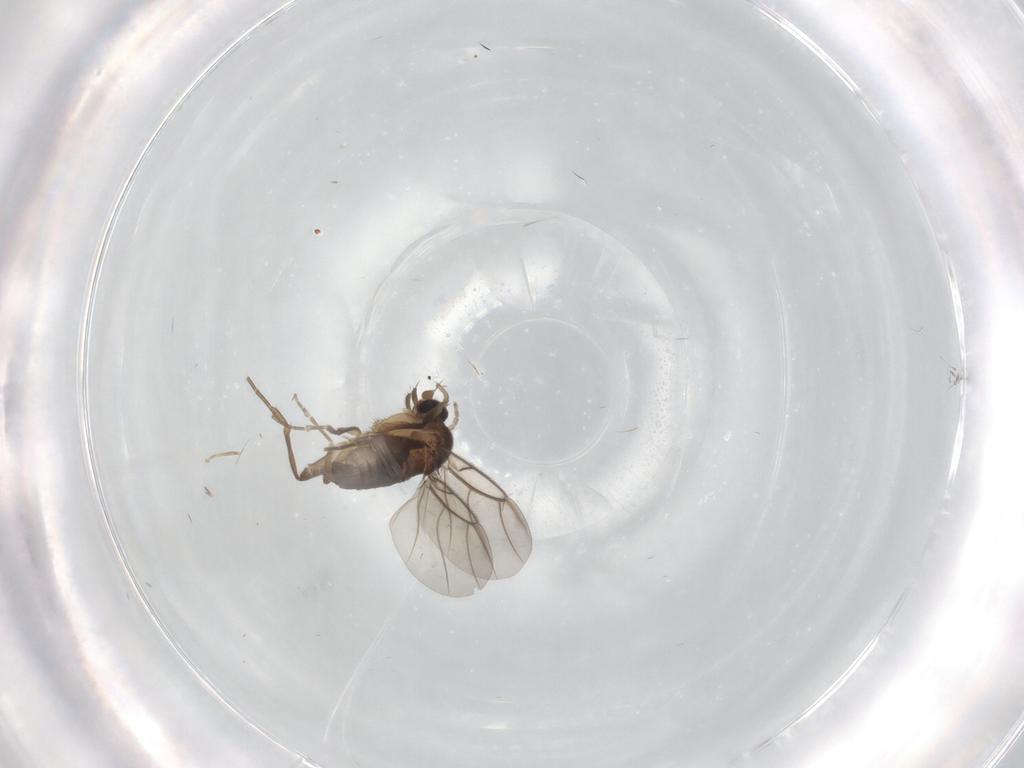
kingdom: Animalia
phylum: Arthropoda
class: Insecta
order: Diptera
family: Phoridae
